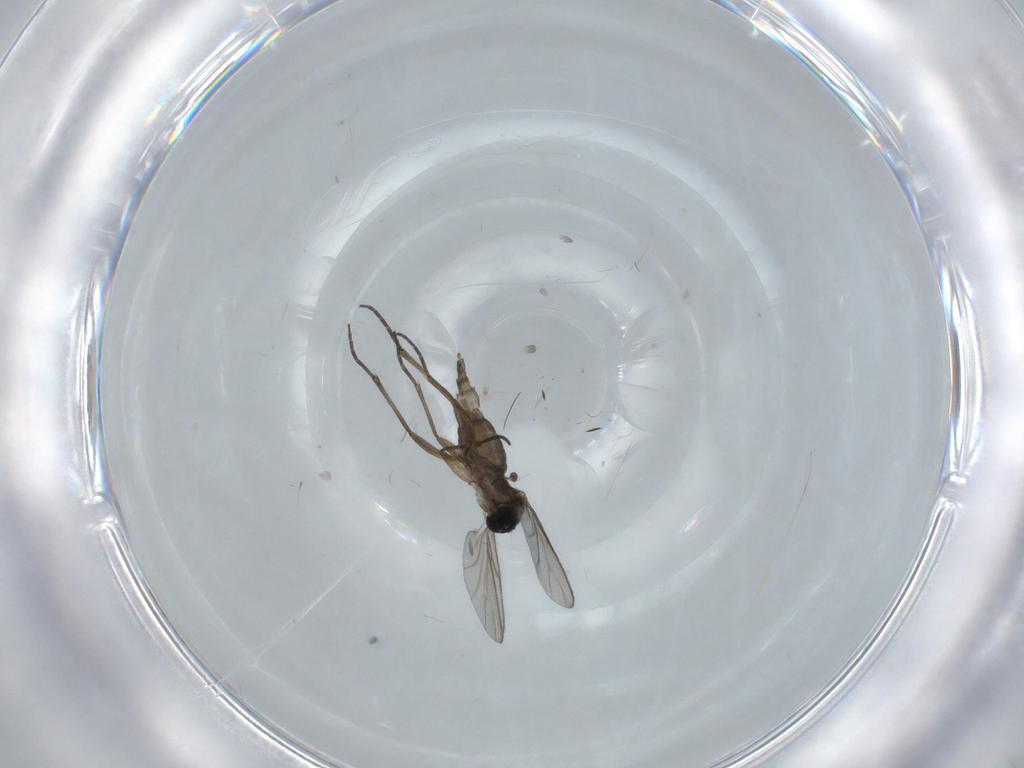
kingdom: Animalia
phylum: Arthropoda
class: Insecta
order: Diptera
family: Sciaridae
